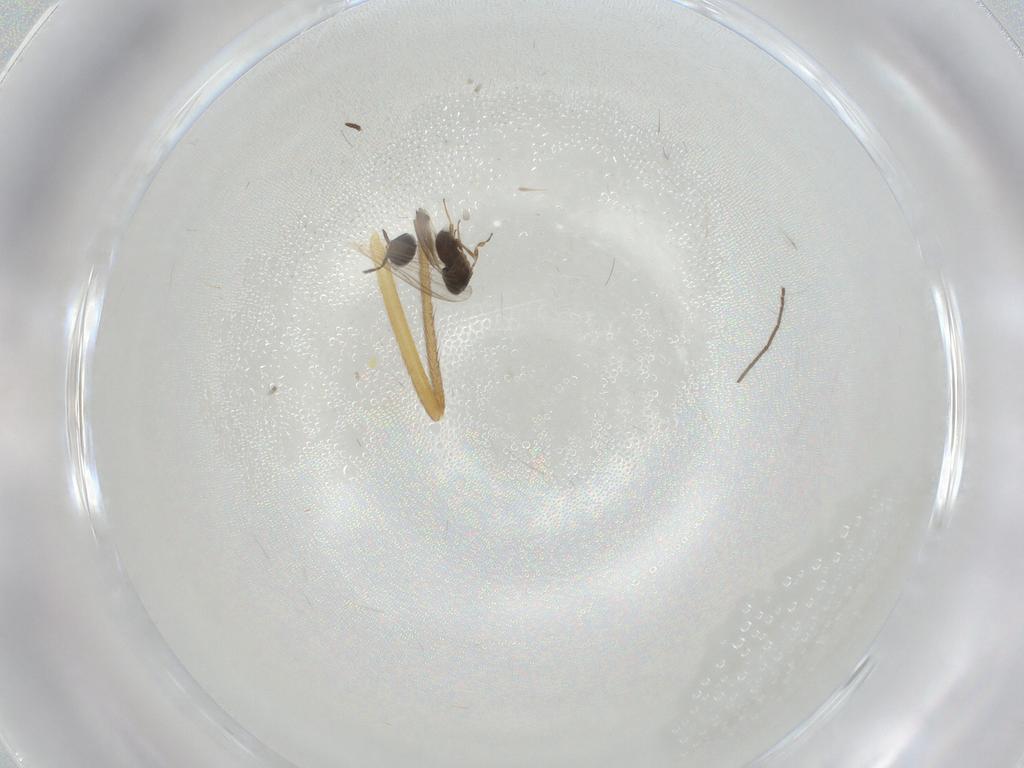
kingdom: Animalia
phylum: Arthropoda
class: Insecta
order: Hymenoptera
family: Scelionidae
